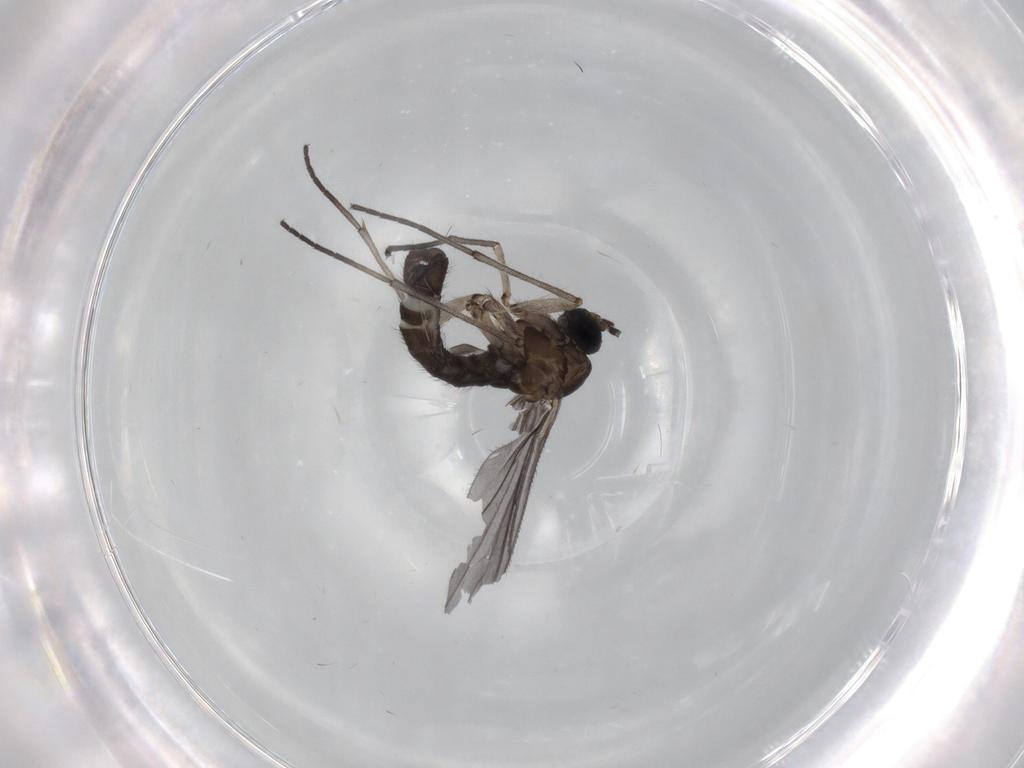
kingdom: Animalia
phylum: Arthropoda
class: Insecta
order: Diptera
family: Sciaridae
